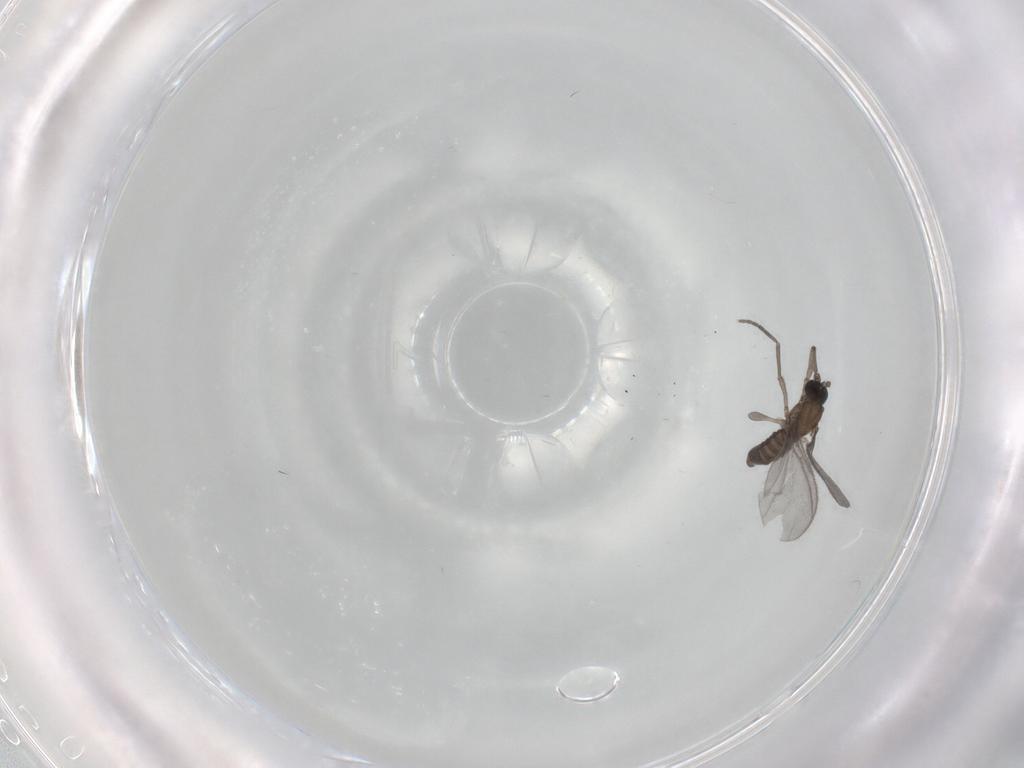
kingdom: Animalia
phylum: Arthropoda
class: Insecta
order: Diptera
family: Sciaridae
